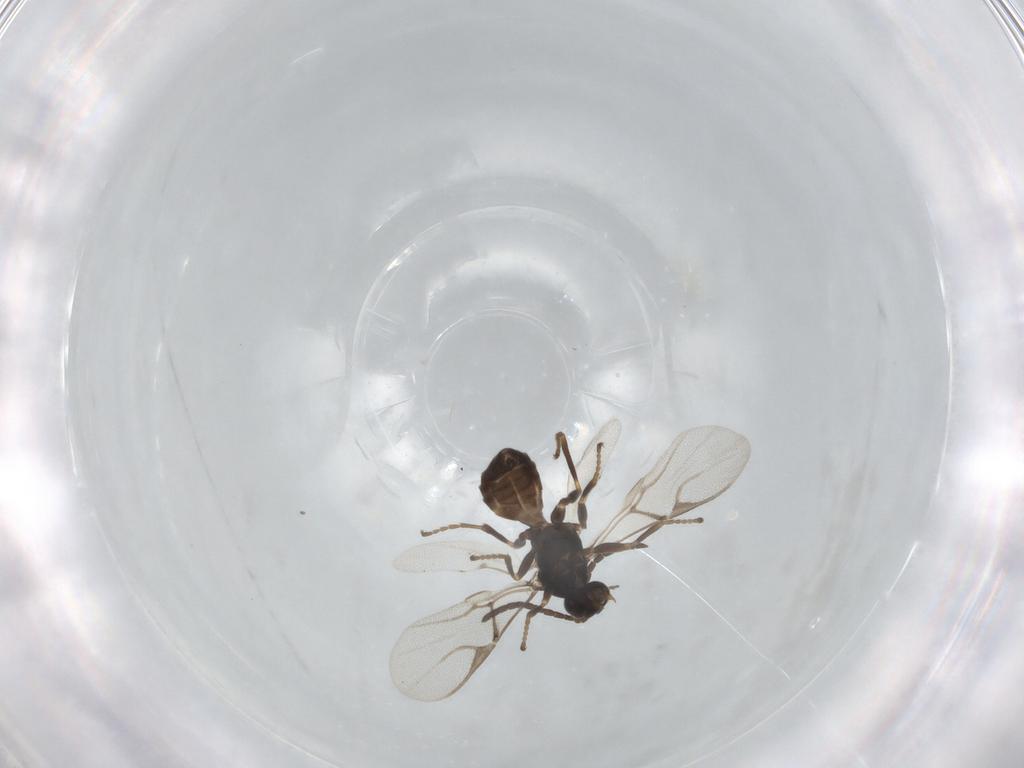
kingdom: Animalia
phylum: Arthropoda
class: Insecta
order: Hymenoptera
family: Braconidae
